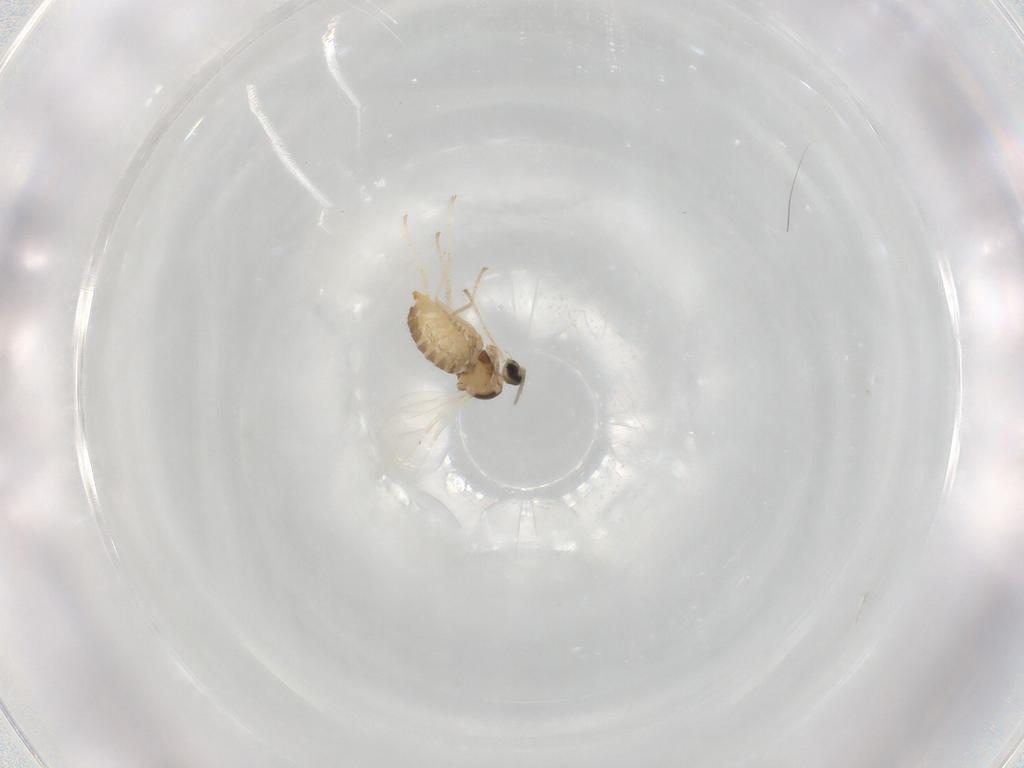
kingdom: Animalia
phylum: Arthropoda
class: Insecta
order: Diptera
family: Cecidomyiidae
